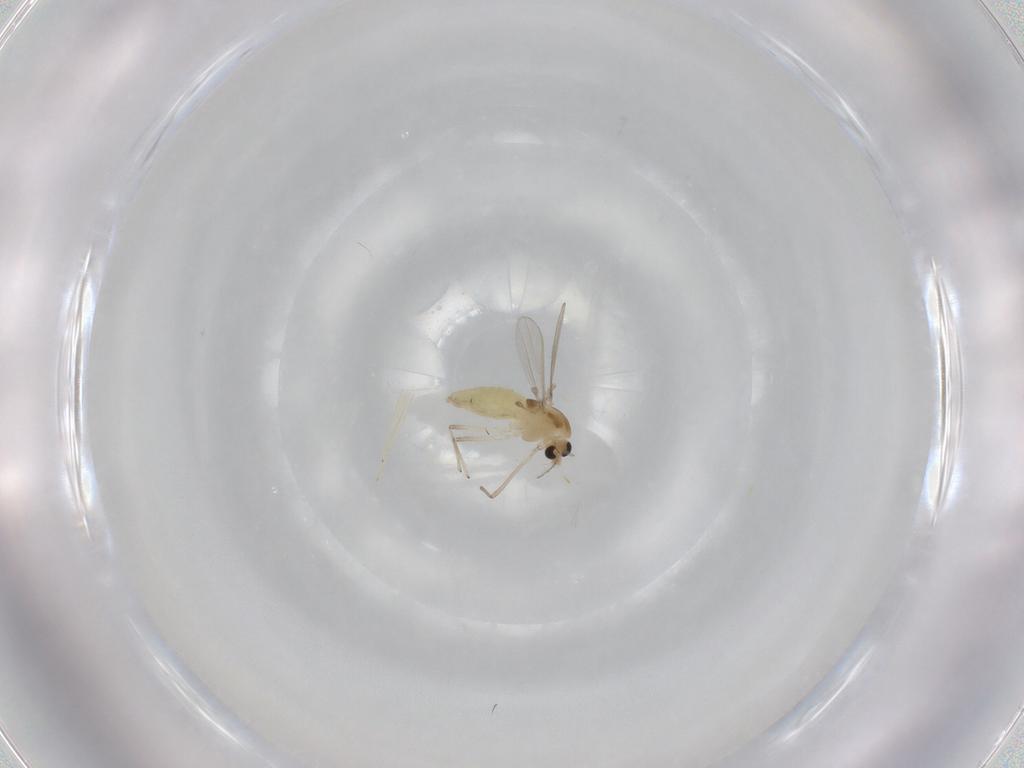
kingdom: Animalia
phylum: Arthropoda
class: Insecta
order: Diptera
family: Chironomidae
